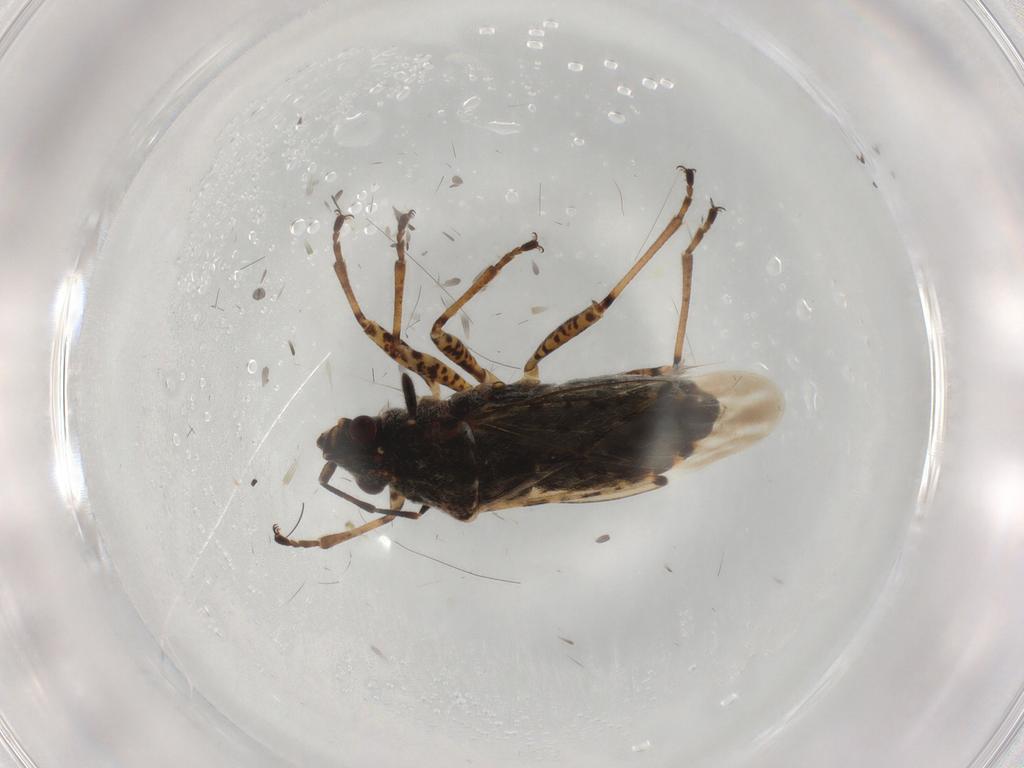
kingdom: Animalia
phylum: Arthropoda
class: Insecta
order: Hemiptera
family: Lygaeidae
